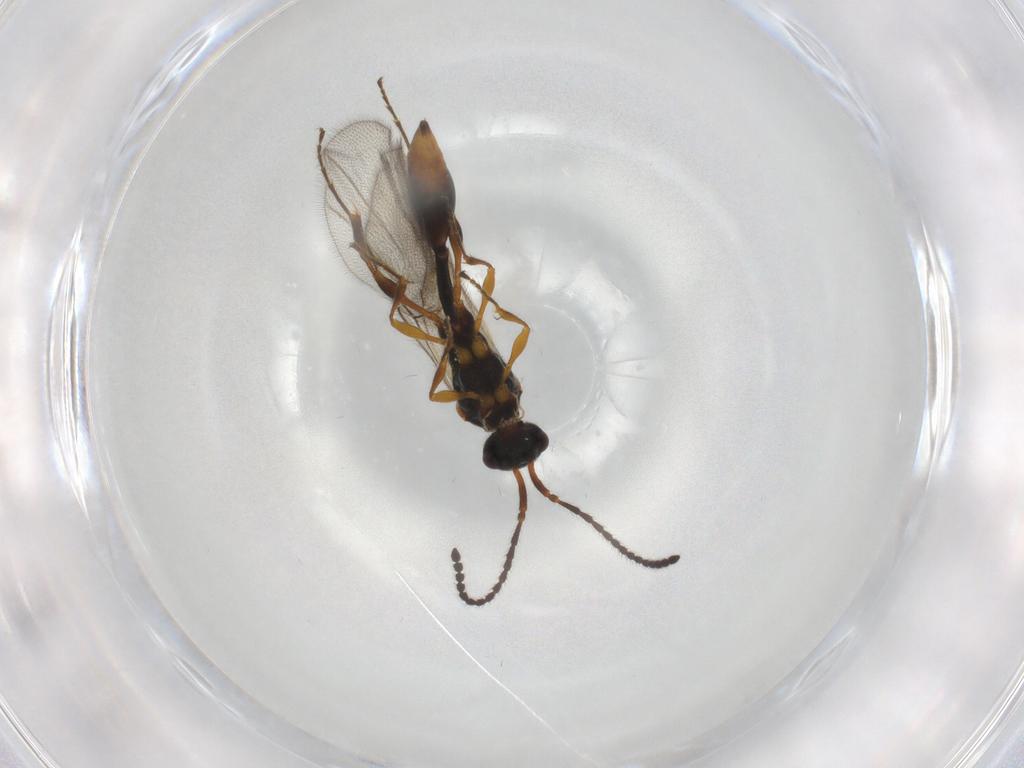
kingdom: Animalia
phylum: Arthropoda
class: Insecta
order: Hymenoptera
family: Diapriidae
